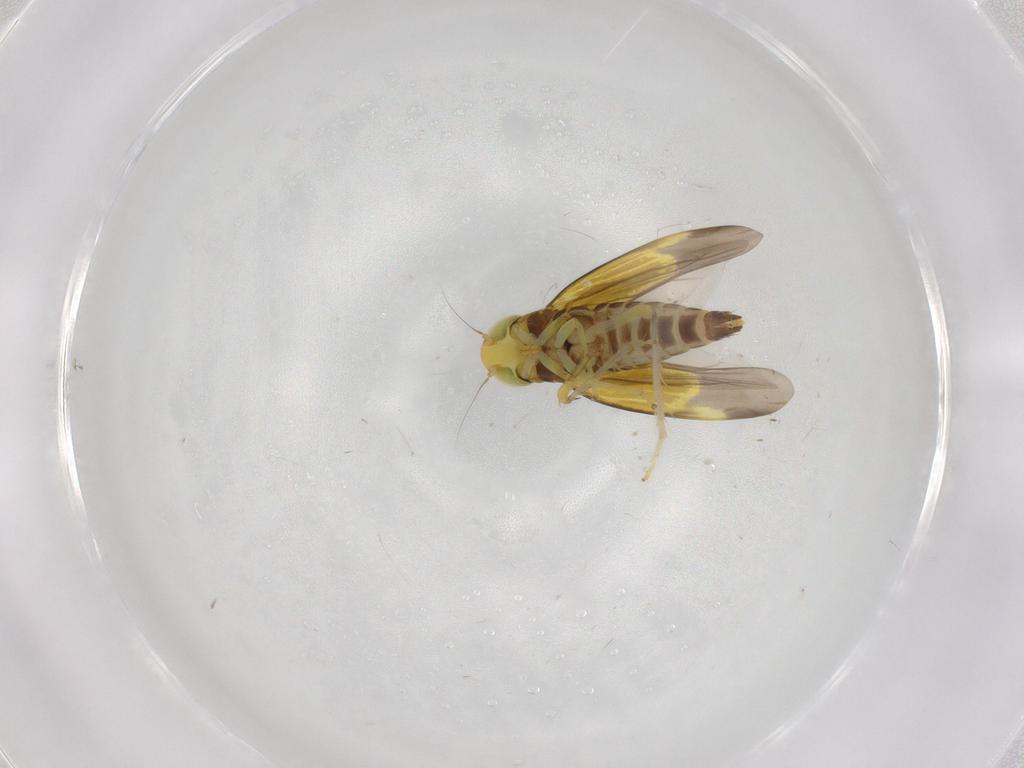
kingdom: Animalia
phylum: Arthropoda
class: Insecta
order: Hemiptera
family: Cicadellidae
